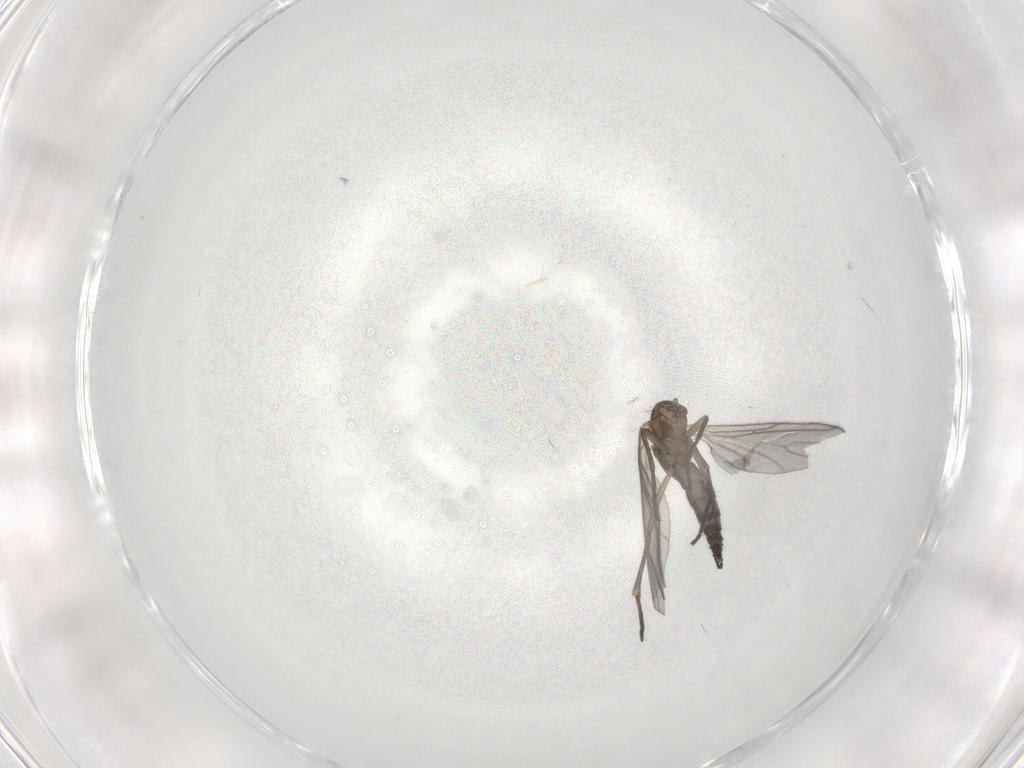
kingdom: Animalia
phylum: Arthropoda
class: Insecta
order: Diptera
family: Sciaridae
